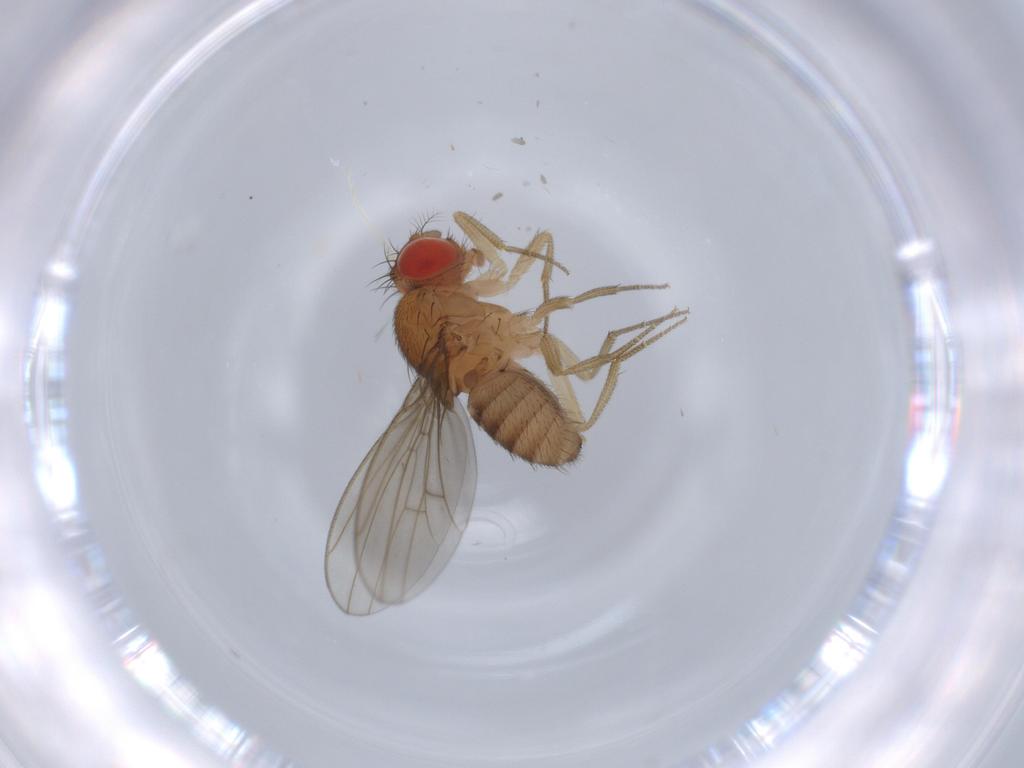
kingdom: Animalia
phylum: Arthropoda
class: Insecta
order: Diptera
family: Drosophilidae
